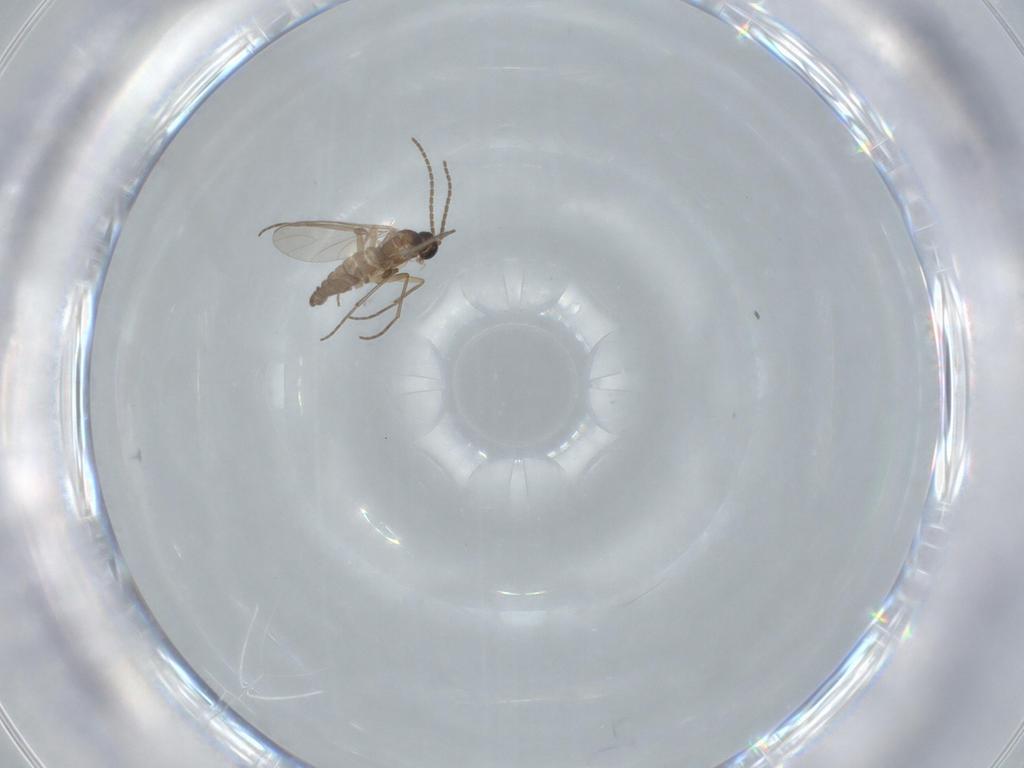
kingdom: Animalia
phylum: Arthropoda
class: Insecta
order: Diptera
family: Sciaridae
